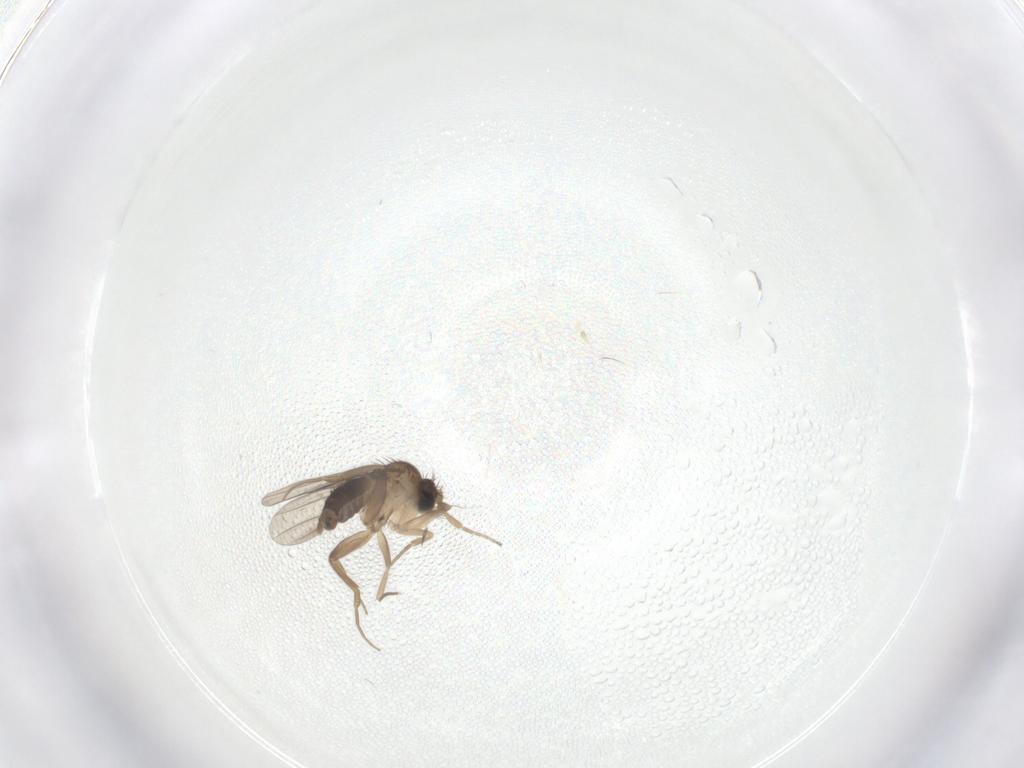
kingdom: Animalia
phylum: Arthropoda
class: Insecta
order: Diptera
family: Phoridae
